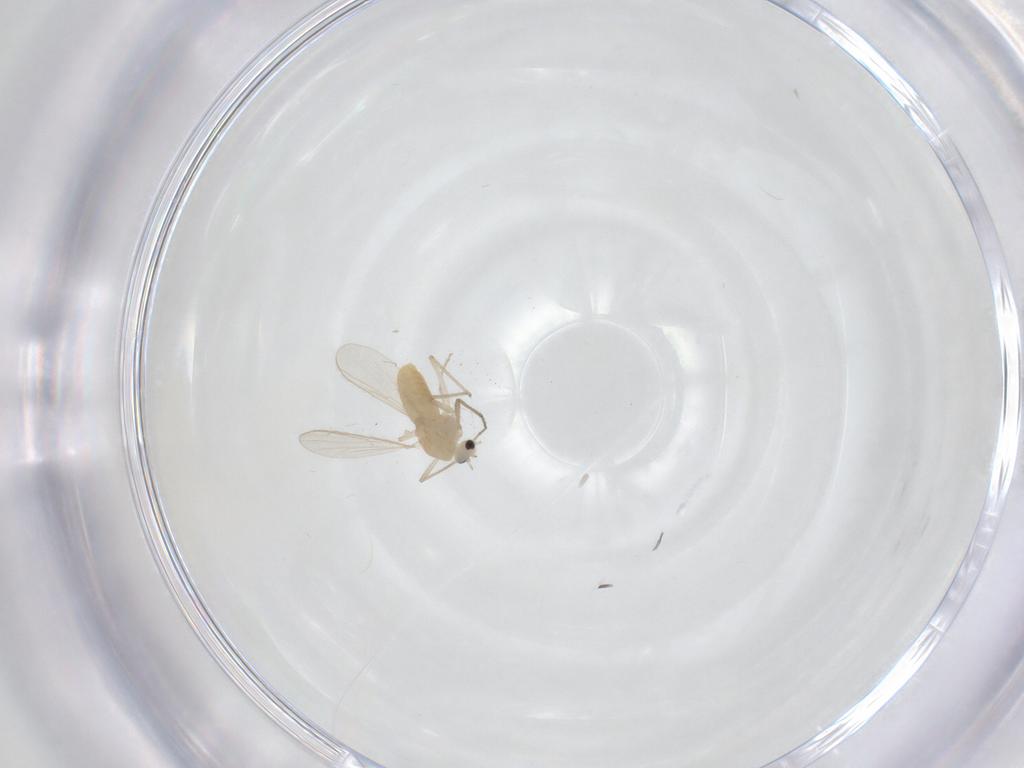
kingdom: Animalia
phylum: Arthropoda
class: Insecta
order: Diptera
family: Chironomidae
